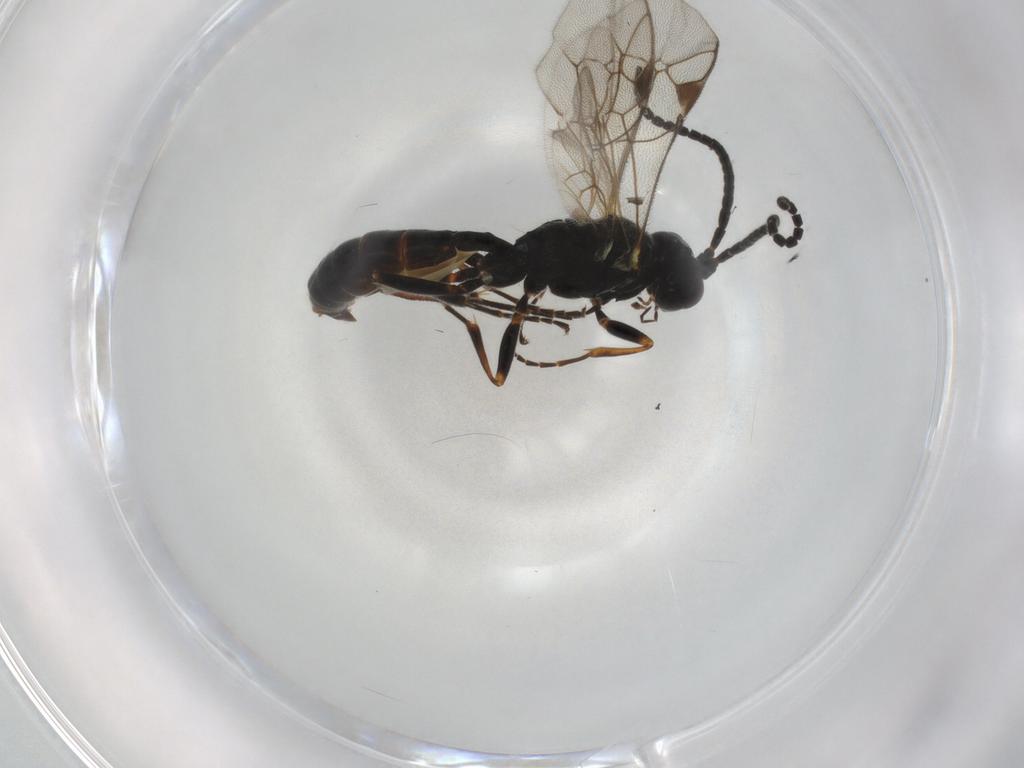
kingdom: Animalia
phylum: Arthropoda
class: Insecta
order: Hymenoptera
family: Ichneumonidae
